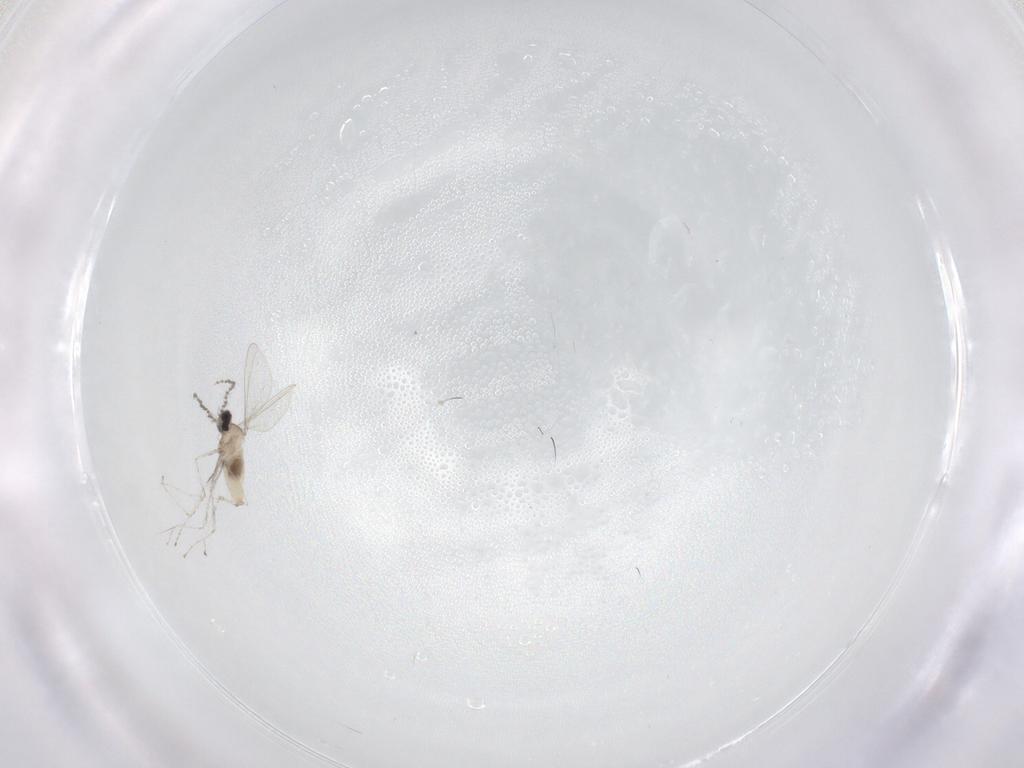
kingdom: Animalia
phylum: Arthropoda
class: Insecta
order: Diptera
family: Cecidomyiidae
